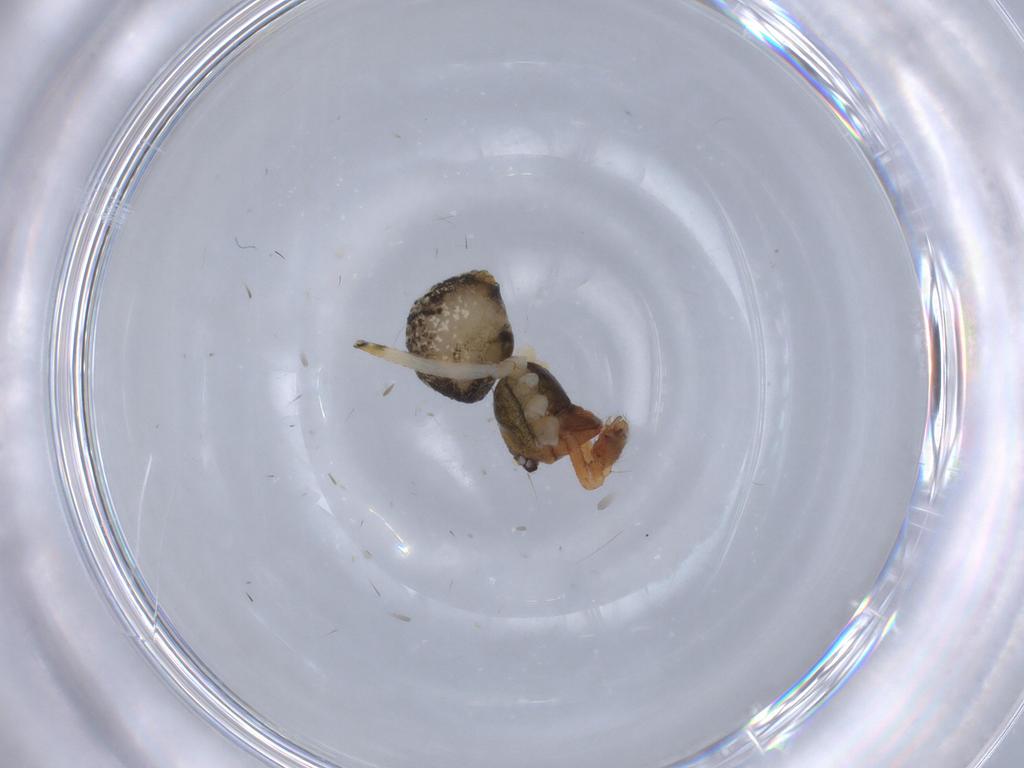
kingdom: Animalia
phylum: Arthropoda
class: Arachnida
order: Araneae
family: Theridiidae
